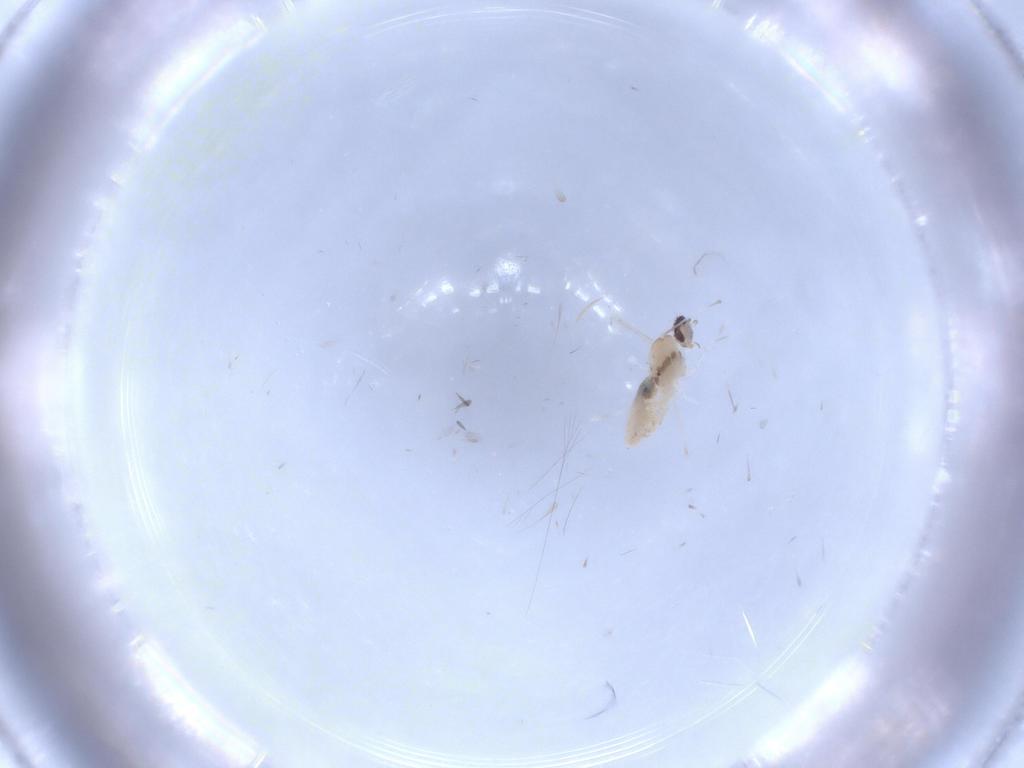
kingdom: Animalia
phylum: Arthropoda
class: Insecta
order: Diptera
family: Cecidomyiidae
